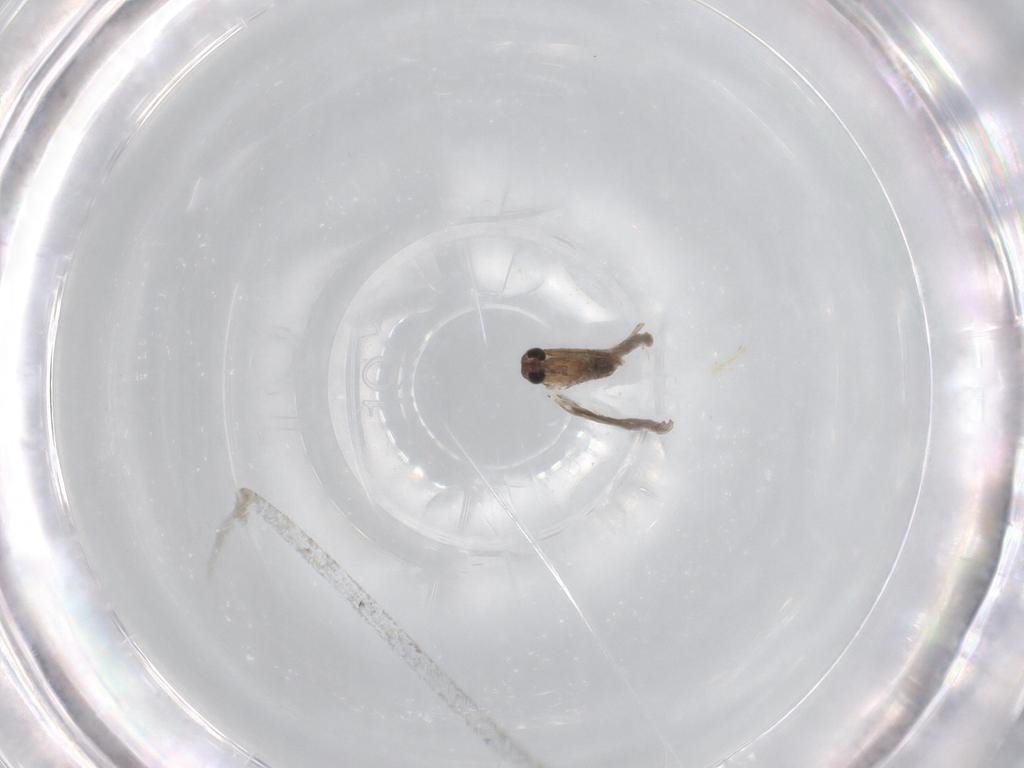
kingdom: Animalia
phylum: Arthropoda
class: Insecta
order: Diptera
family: Psychodidae
